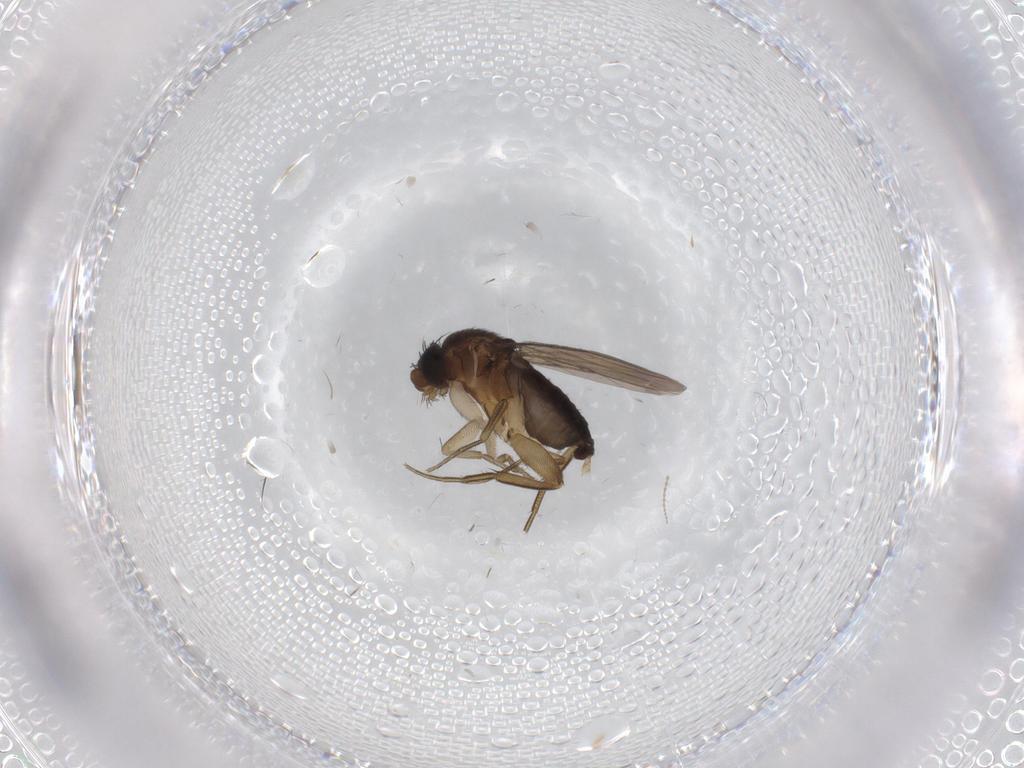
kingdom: Animalia
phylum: Arthropoda
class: Insecta
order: Diptera
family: Phoridae
